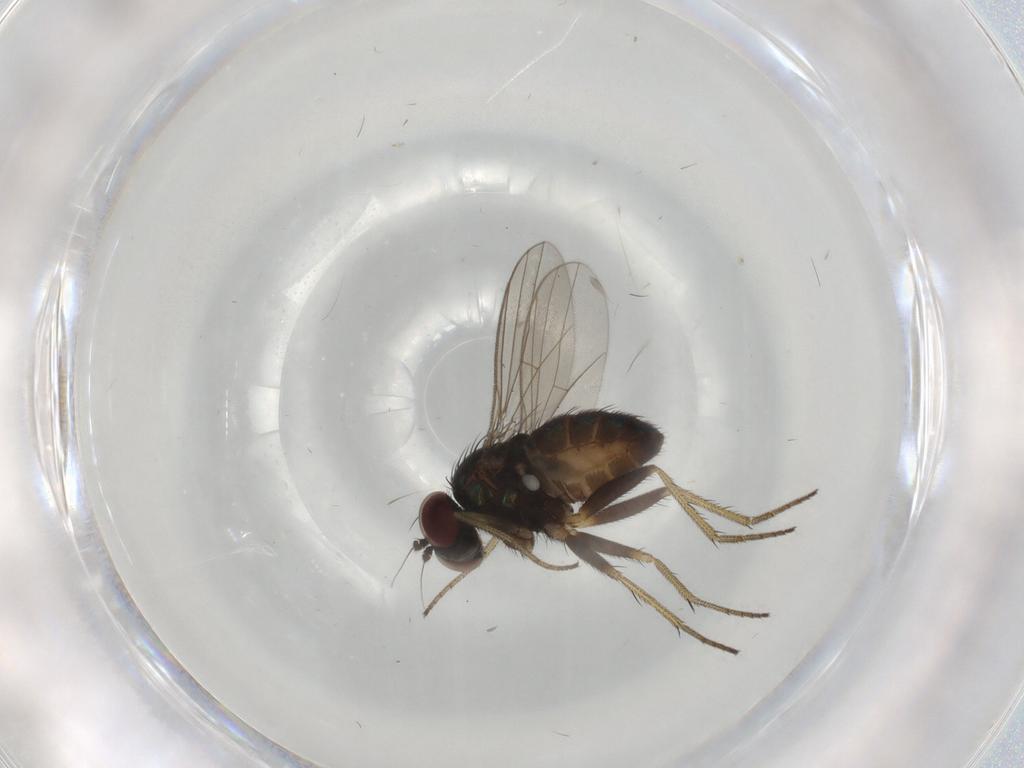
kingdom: Animalia
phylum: Arthropoda
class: Insecta
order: Diptera
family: Dolichopodidae
